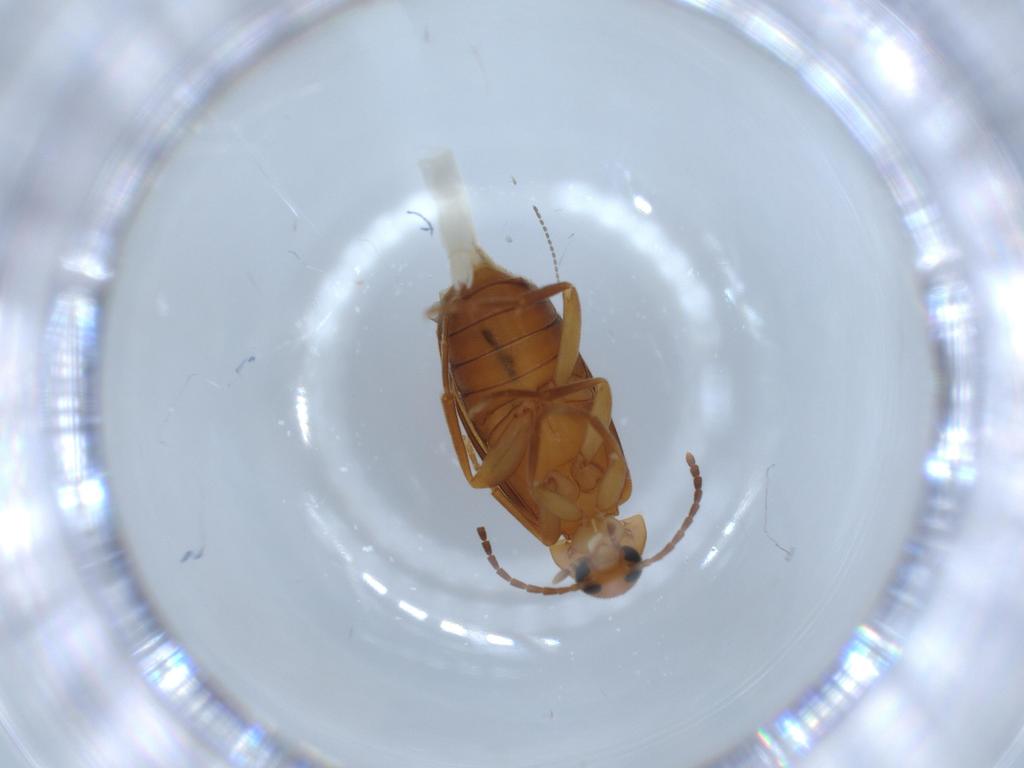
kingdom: Animalia
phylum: Arthropoda
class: Insecta
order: Coleoptera
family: Scraptiidae
